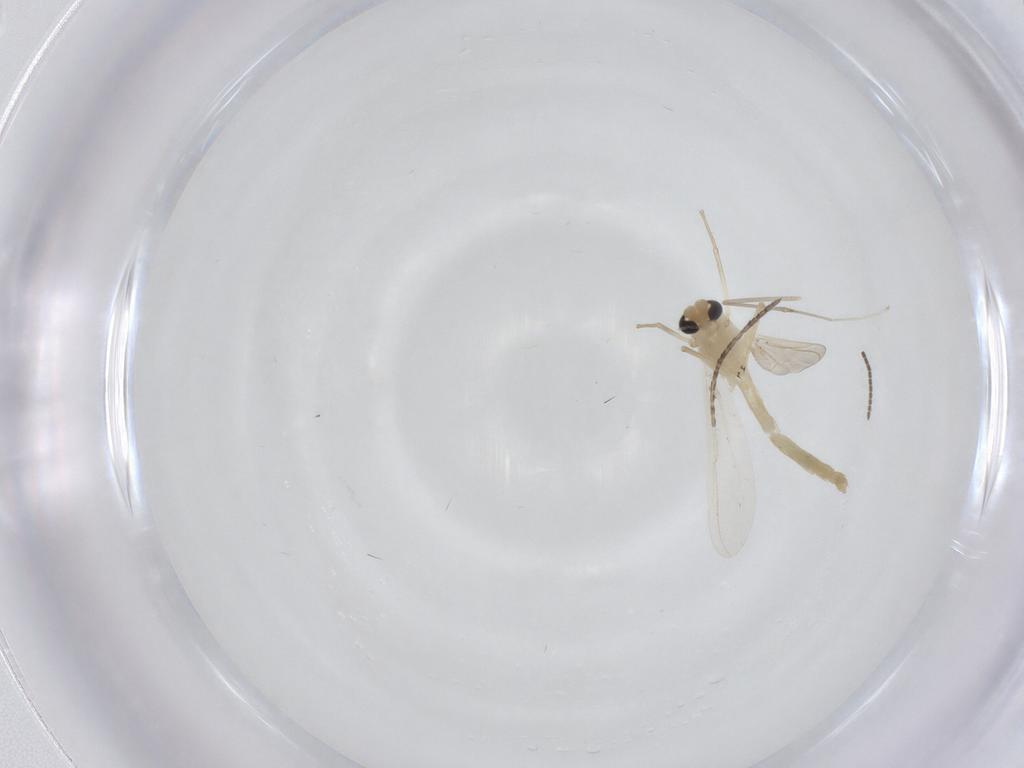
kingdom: Animalia
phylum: Arthropoda
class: Insecta
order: Diptera
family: Chironomidae
